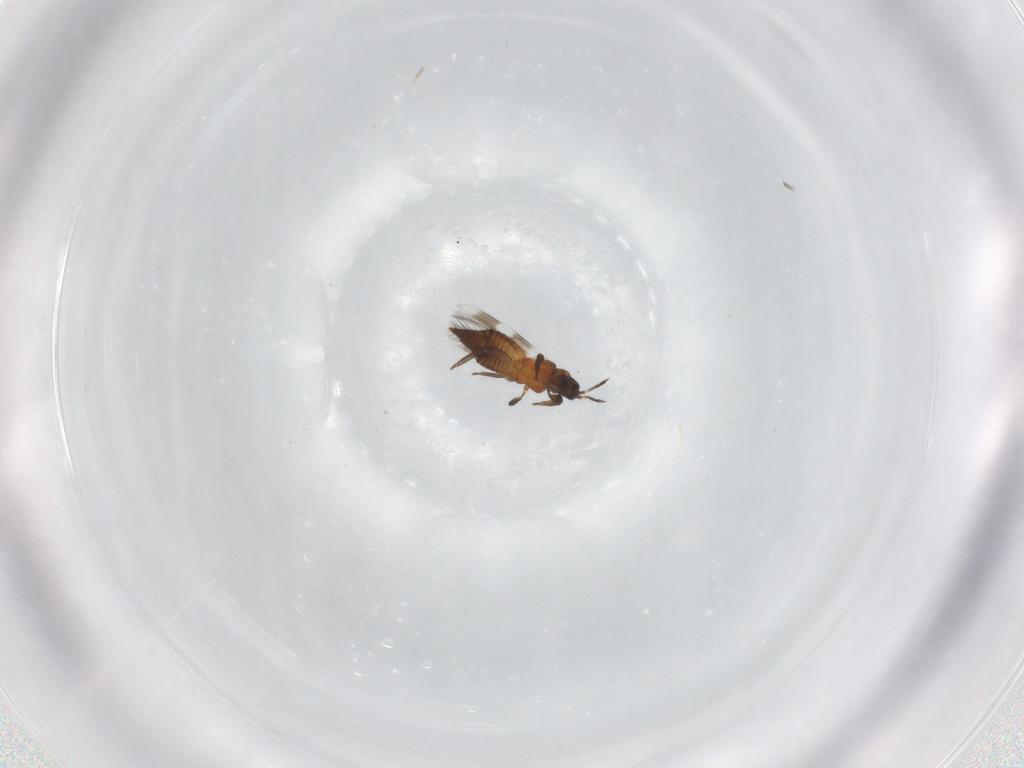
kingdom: Animalia
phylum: Arthropoda
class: Insecta
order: Thysanoptera
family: Aeolothripidae
